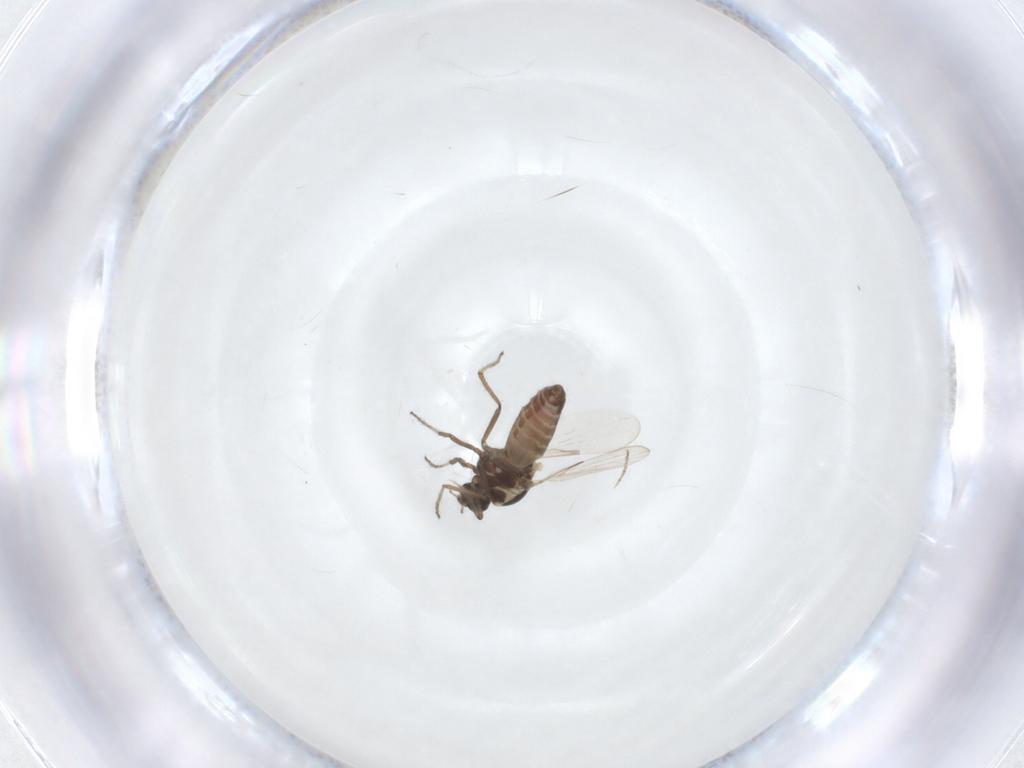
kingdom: Animalia
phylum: Arthropoda
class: Insecta
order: Diptera
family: Ceratopogonidae
